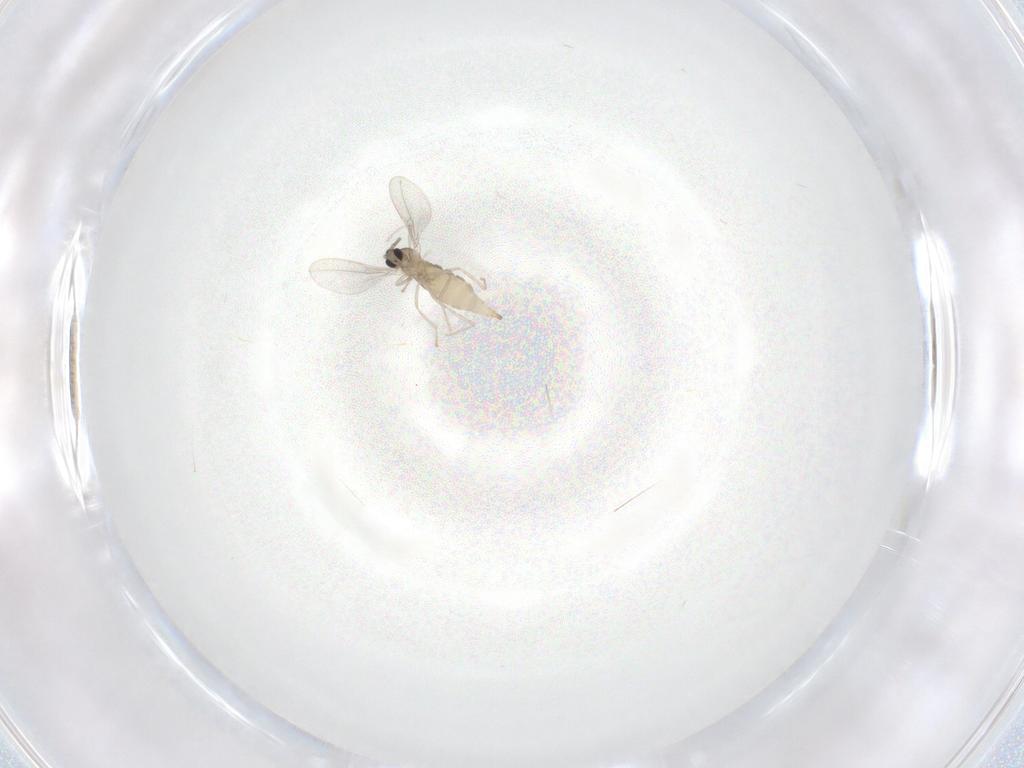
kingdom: Animalia
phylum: Arthropoda
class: Insecta
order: Diptera
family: Cecidomyiidae
